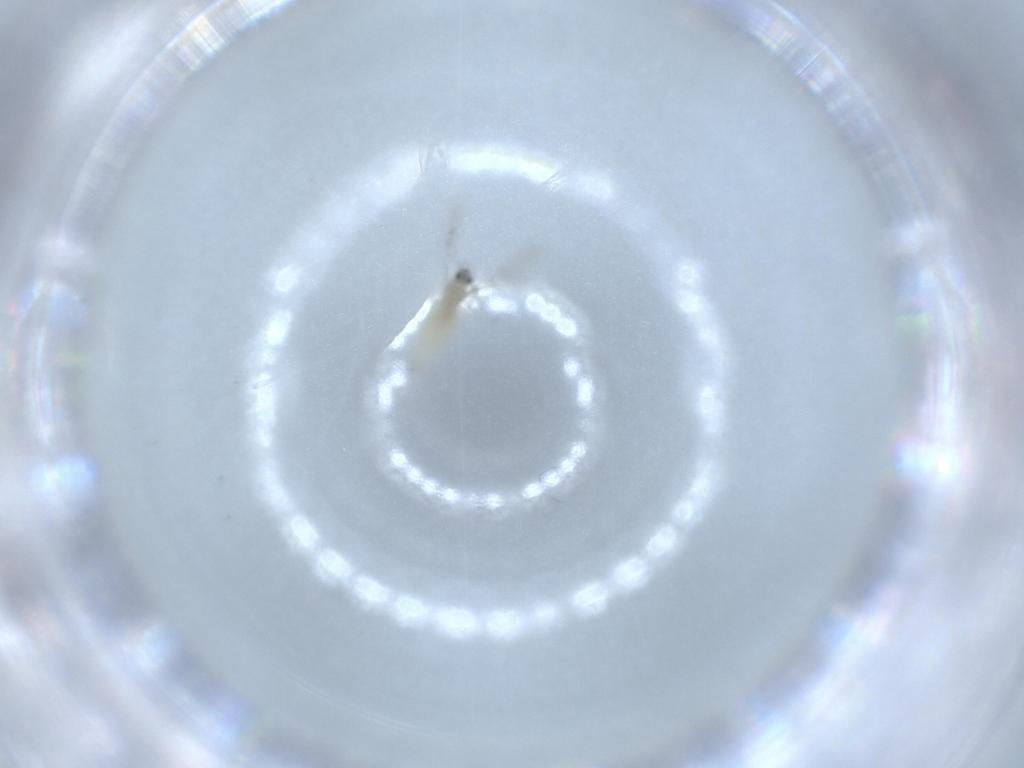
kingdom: Animalia
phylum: Arthropoda
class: Insecta
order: Diptera
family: Cecidomyiidae
